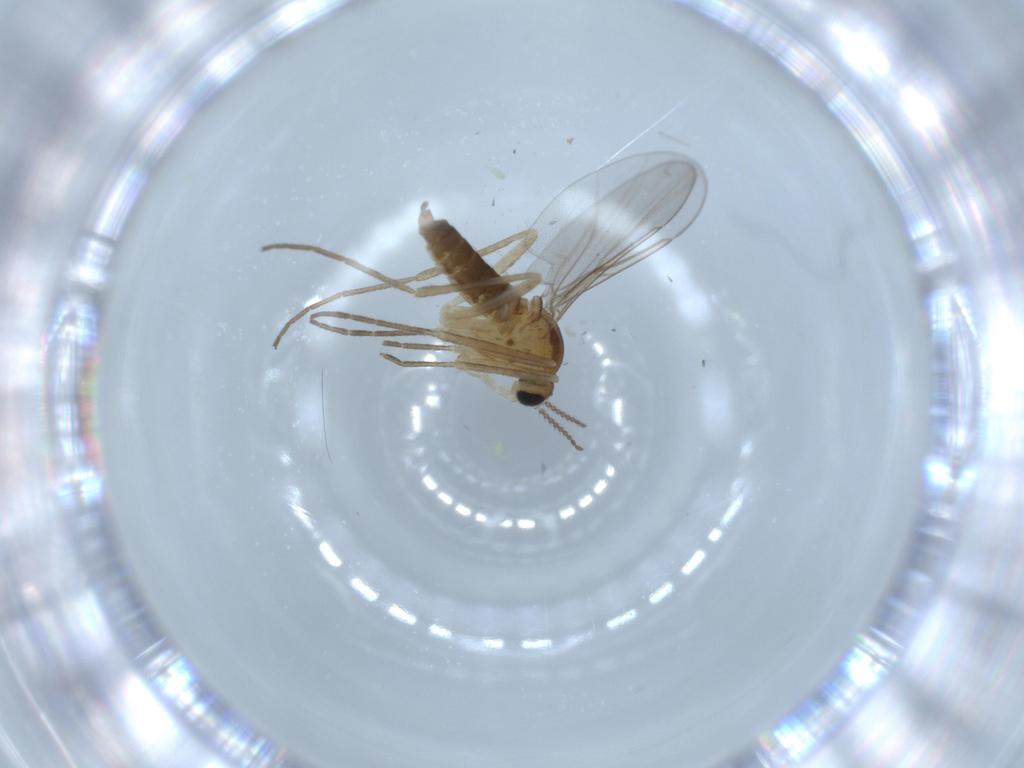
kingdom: Animalia
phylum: Arthropoda
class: Insecta
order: Diptera
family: Cecidomyiidae
